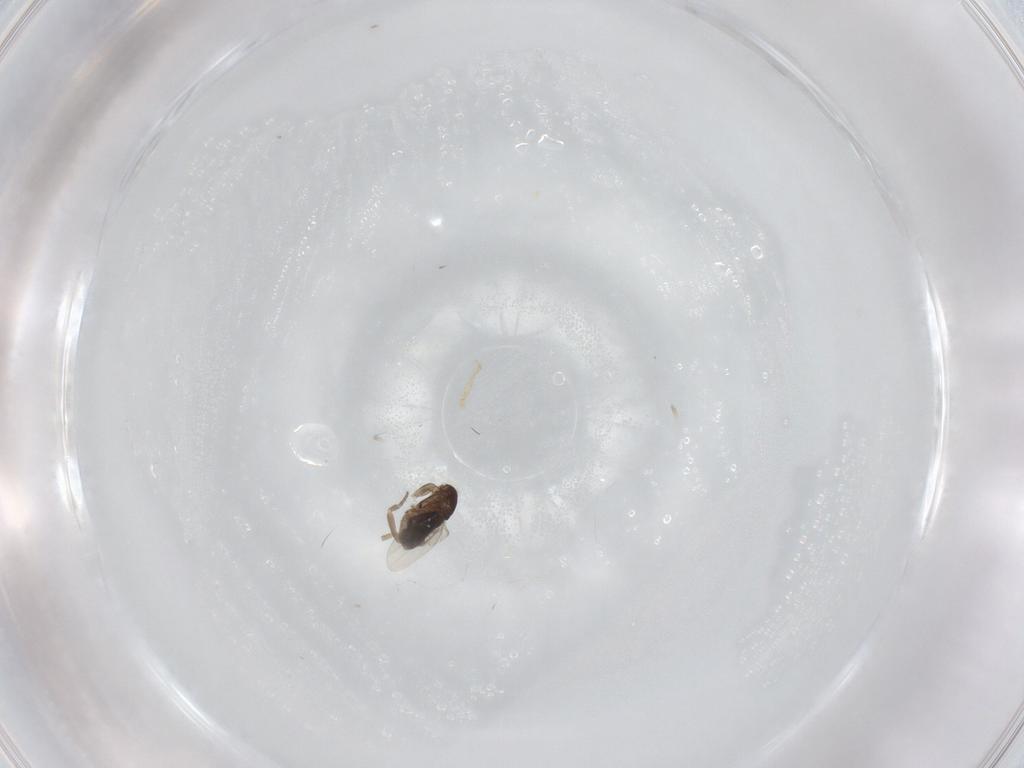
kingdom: Animalia
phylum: Arthropoda
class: Insecta
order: Diptera
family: Phoridae
